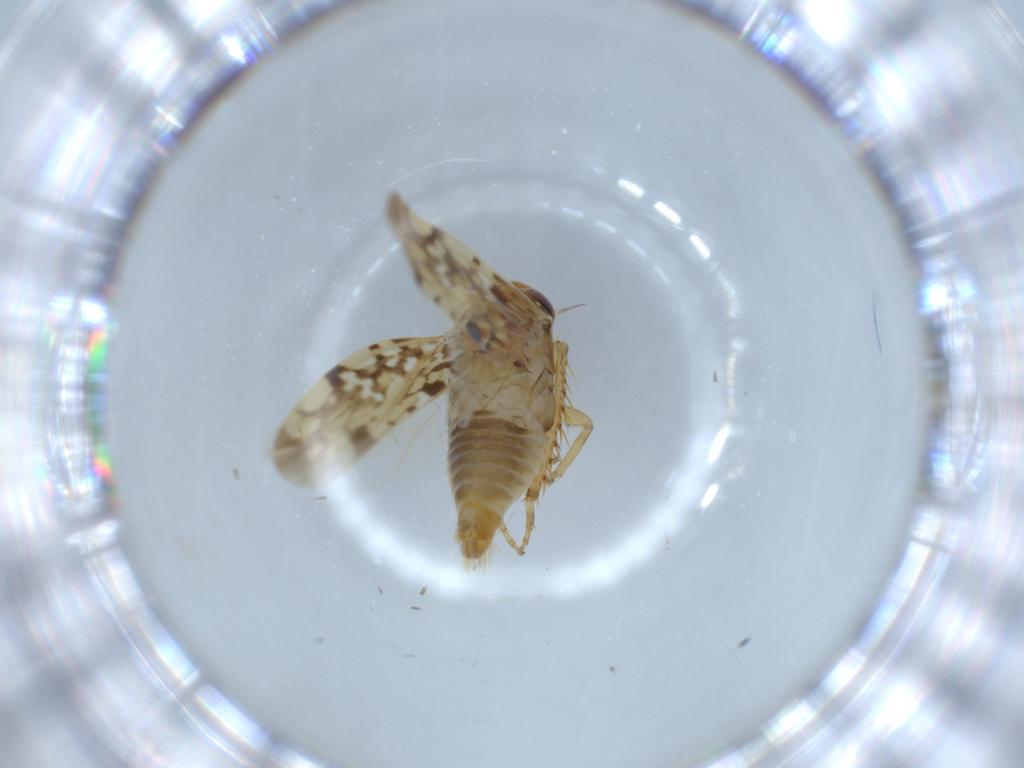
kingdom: Animalia
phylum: Arthropoda
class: Insecta
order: Hemiptera
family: Cicadellidae
